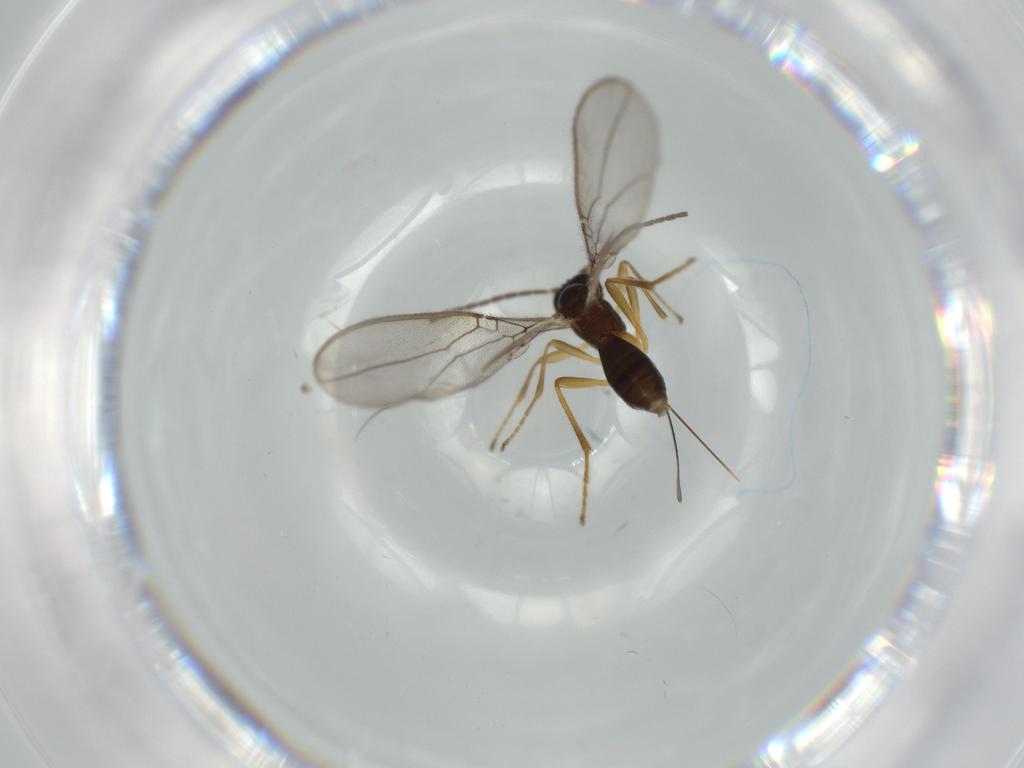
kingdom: Animalia
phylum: Arthropoda
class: Insecta
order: Hymenoptera
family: Braconidae
